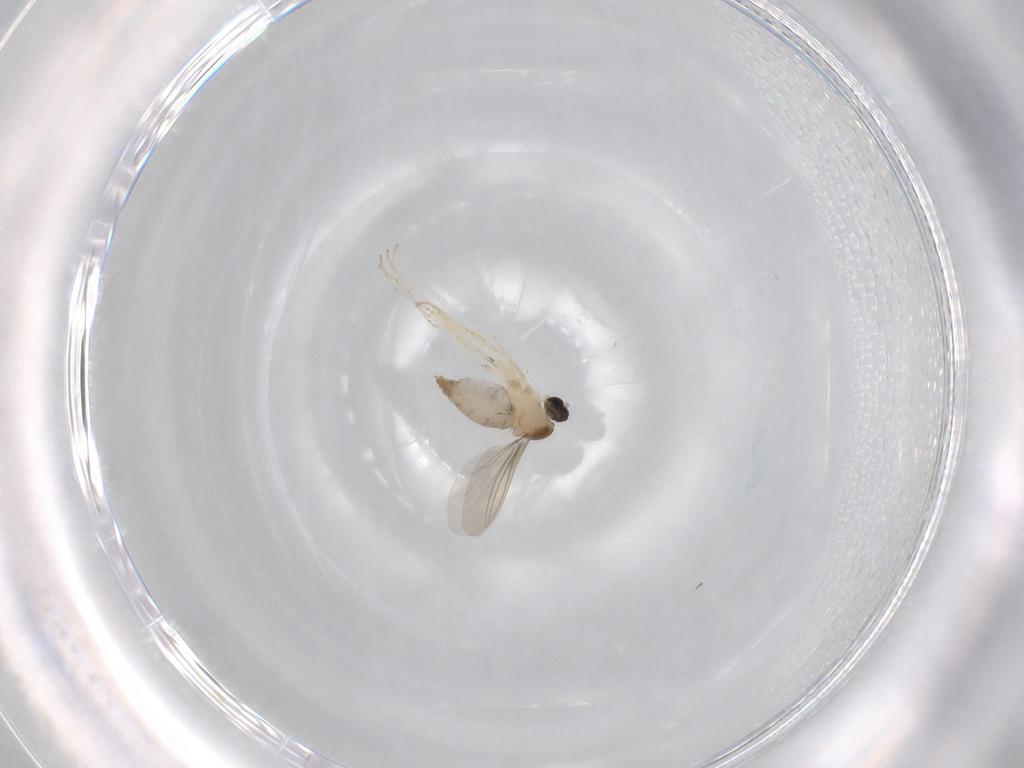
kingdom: Animalia
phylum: Arthropoda
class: Insecta
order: Diptera
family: Cecidomyiidae
